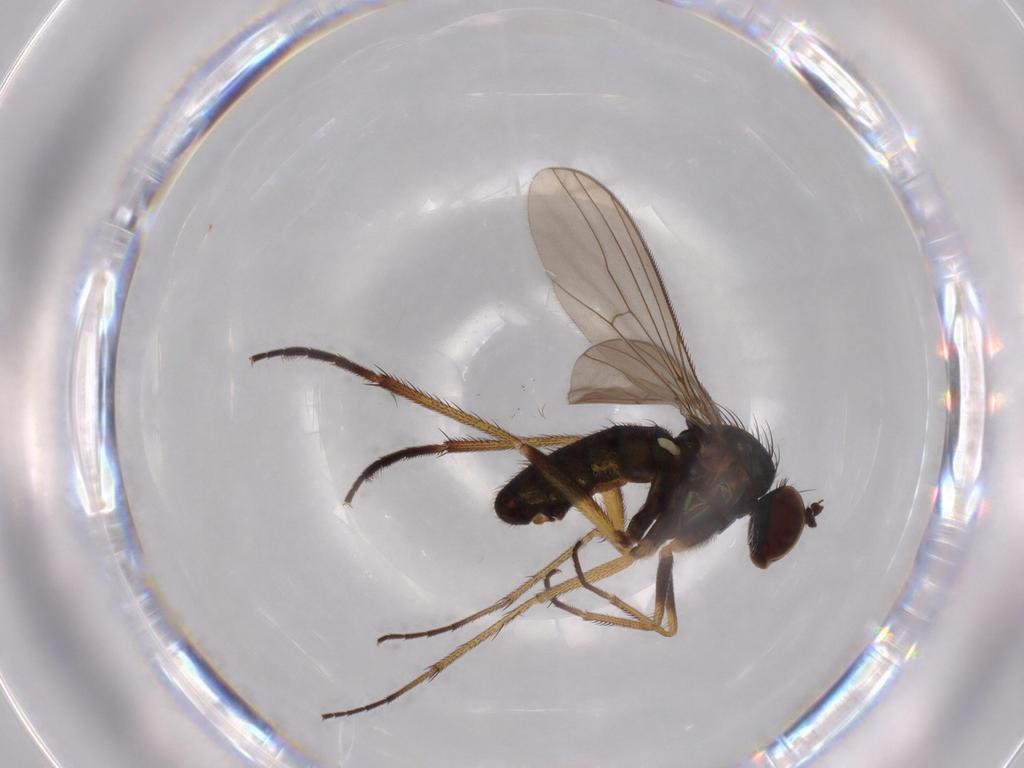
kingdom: Animalia
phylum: Arthropoda
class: Insecta
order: Diptera
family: Dolichopodidae
